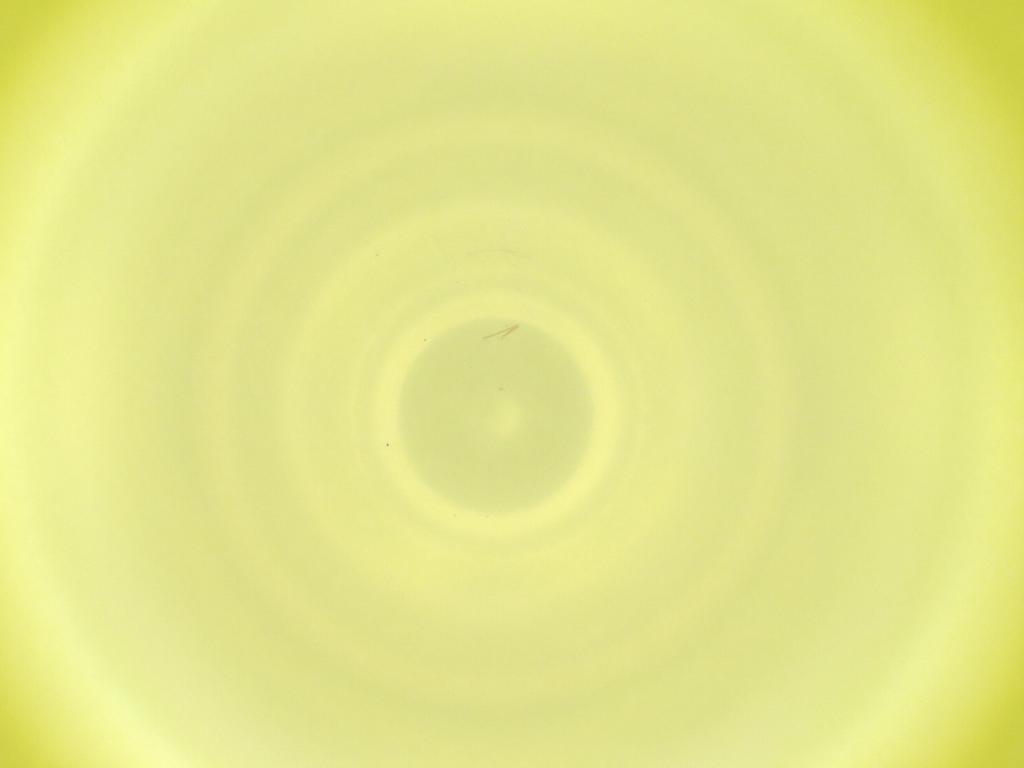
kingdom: Animalia
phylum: Arthropoda
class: Insecta
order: Diptera
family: Cecidomyiidae
